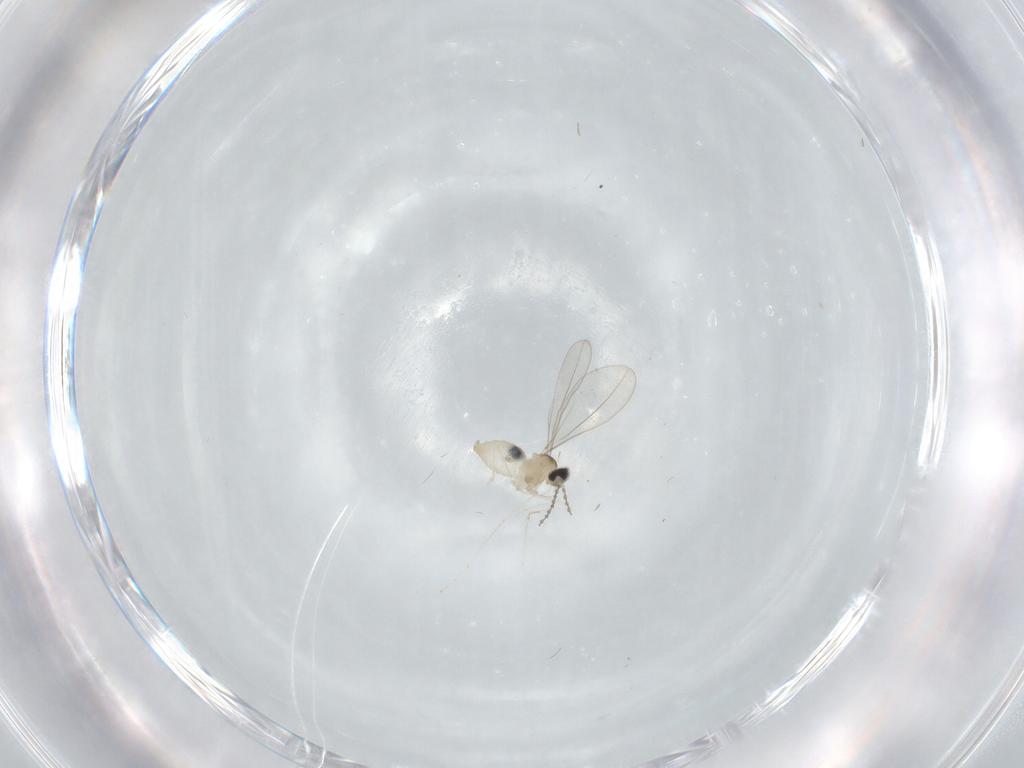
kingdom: Animalia
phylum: Arthropoda
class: Insecta
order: Diptera
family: Chironomidae
